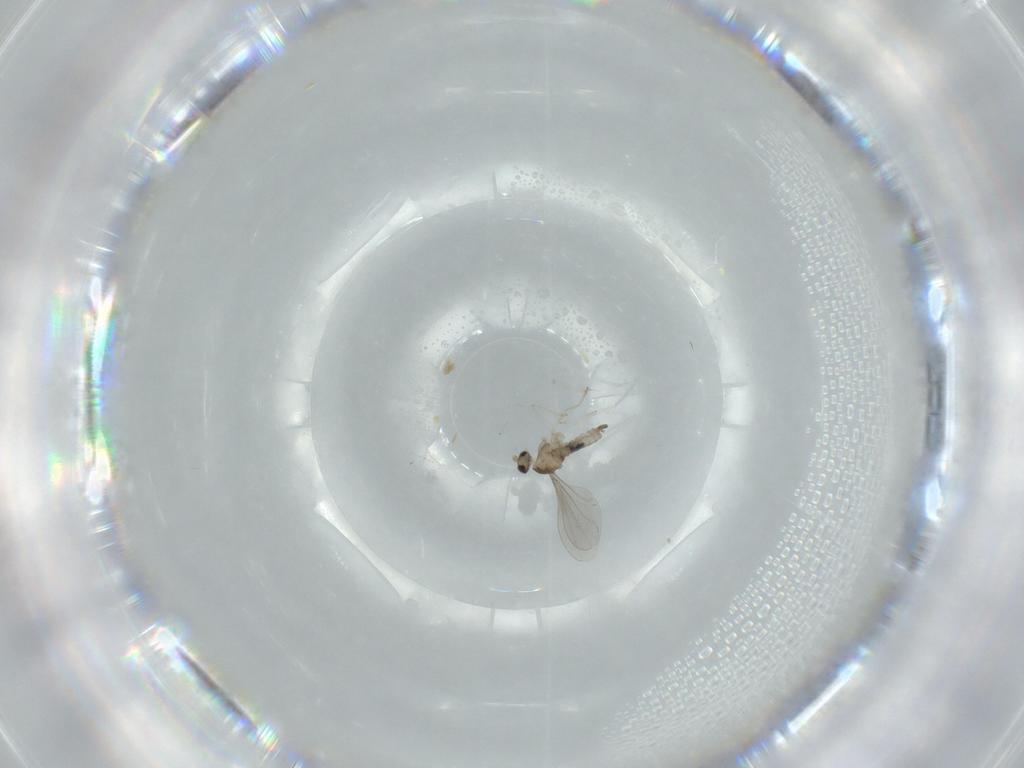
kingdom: Animalia
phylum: Arthropoda
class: Insecta
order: Diptera
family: Cecidomyiidae
